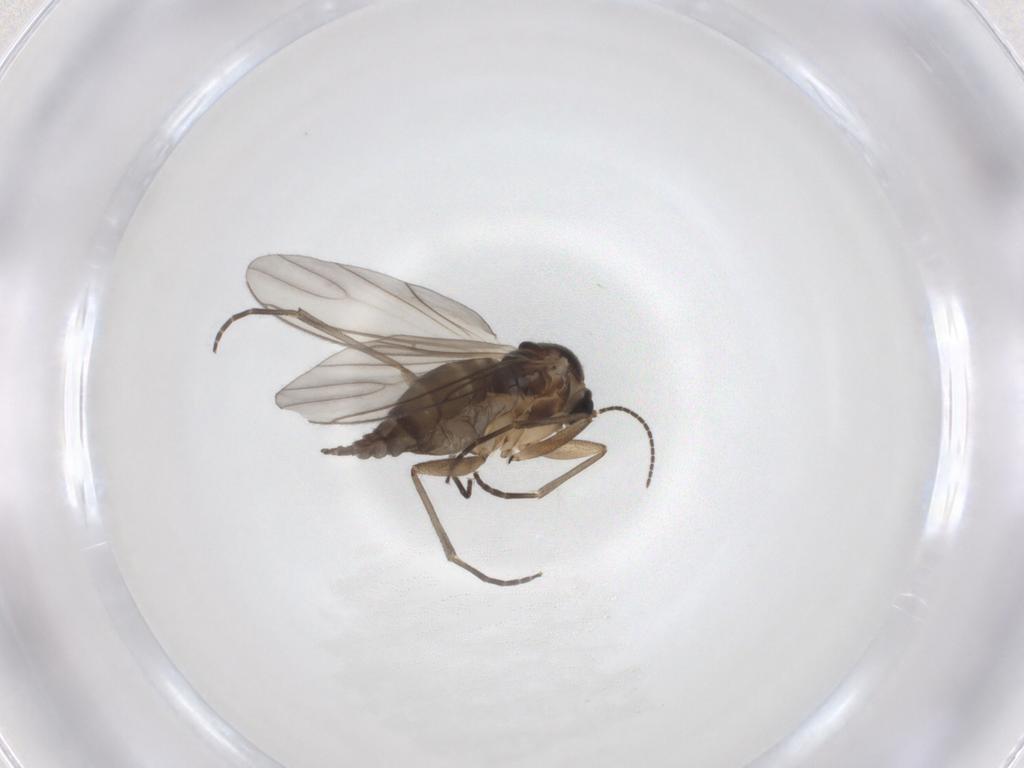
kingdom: Animalia
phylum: Arthropoda
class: Insecta
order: Diptera
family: Sciaridae
